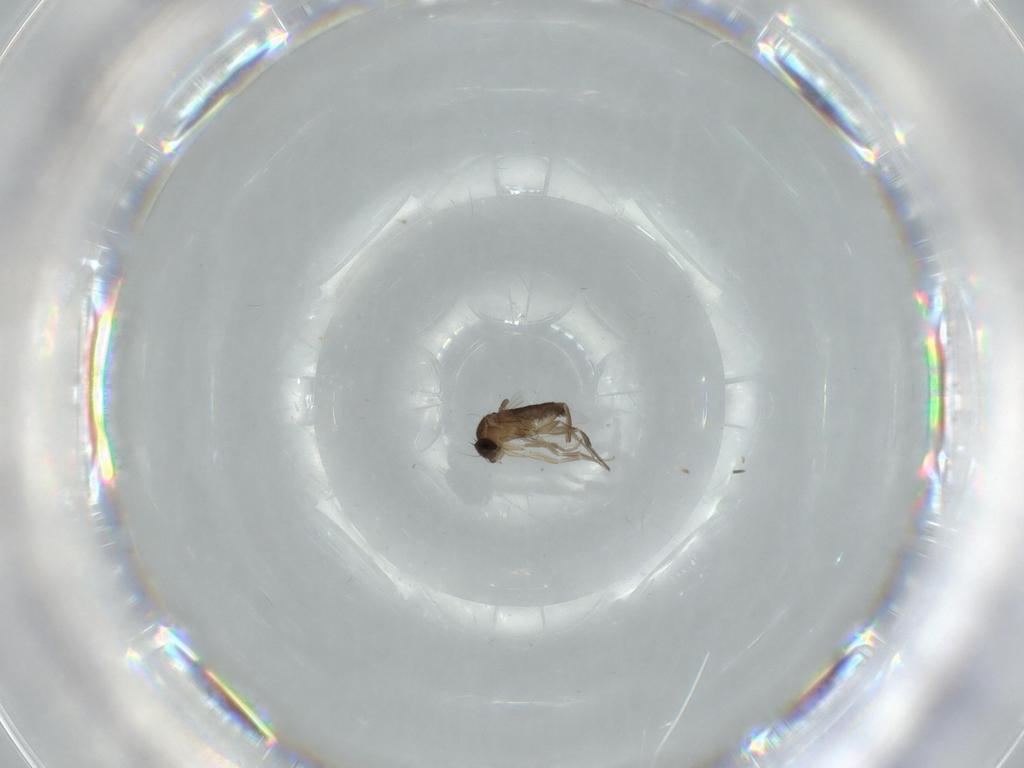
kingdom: Animalia
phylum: Arthropoda
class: Insecta
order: Diptera
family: Phoridae
